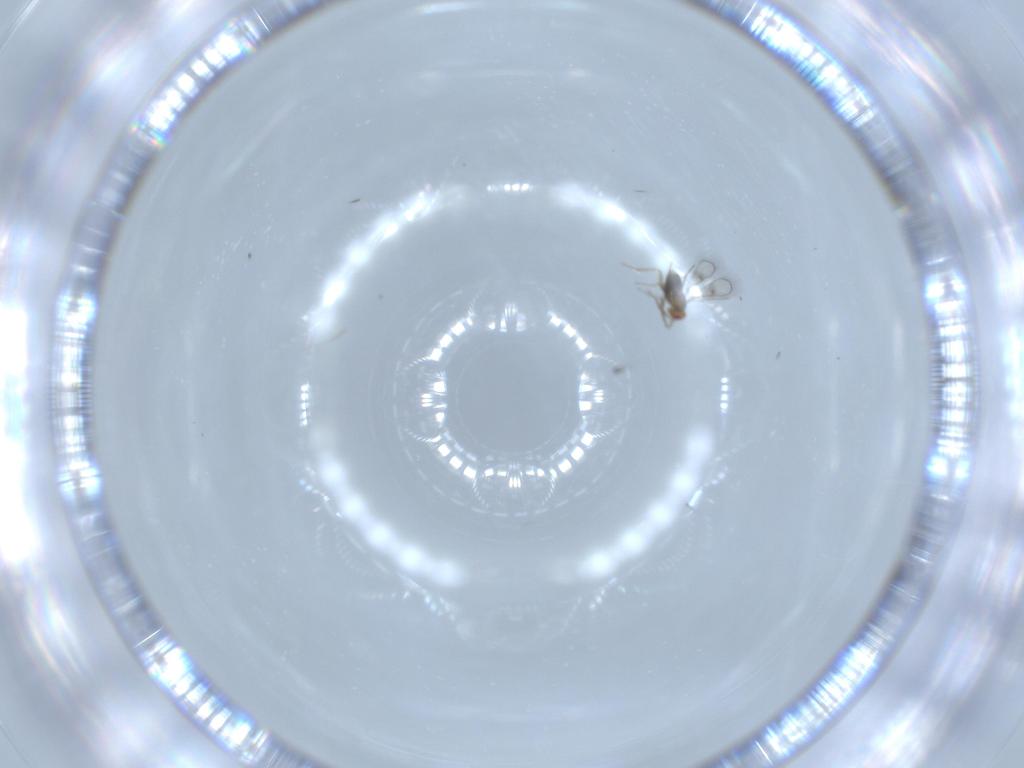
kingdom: Animalia
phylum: Arthropoda
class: Insecta
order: Hymenoptera
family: Trichogrammatidae
